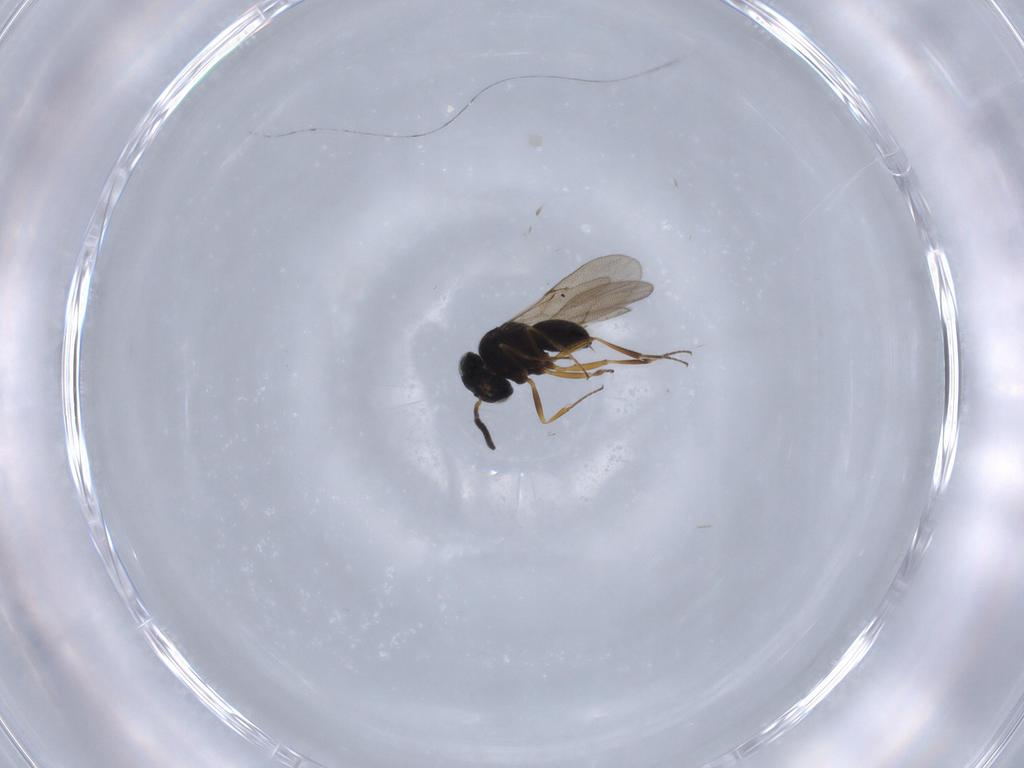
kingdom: Animalia
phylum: Arthropoda
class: Insecta
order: Hymenoptera
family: Scelionidae
